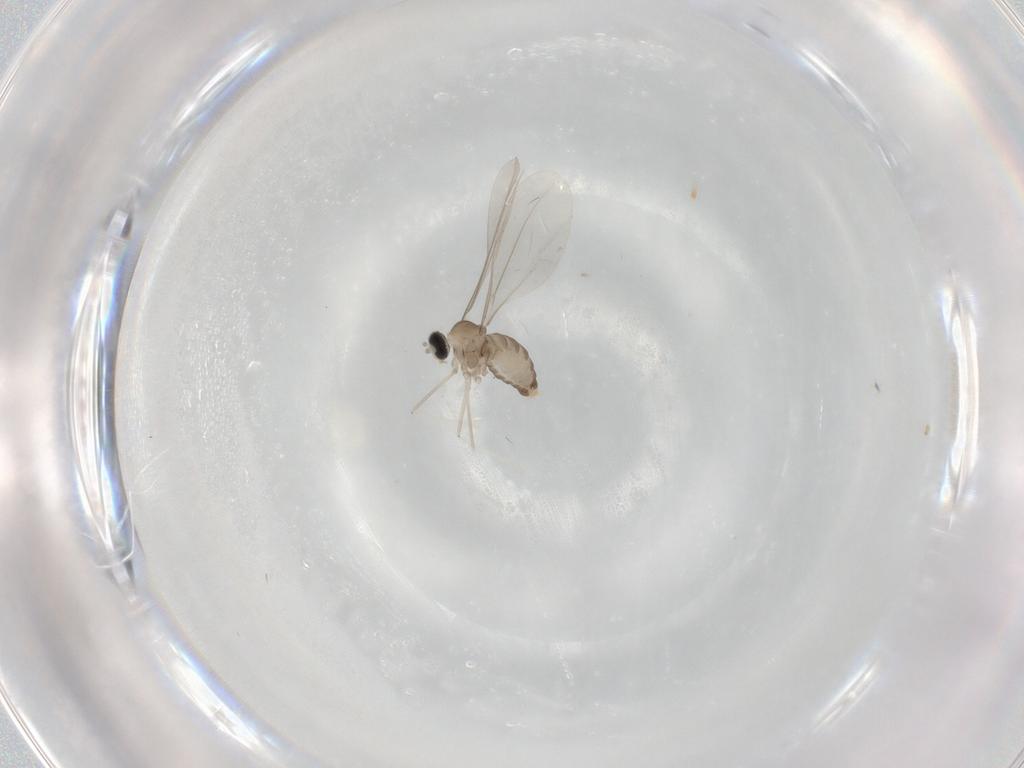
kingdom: Animalia
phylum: Arthropoda
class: Insecta
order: Diptera
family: Cecidomyiidae
